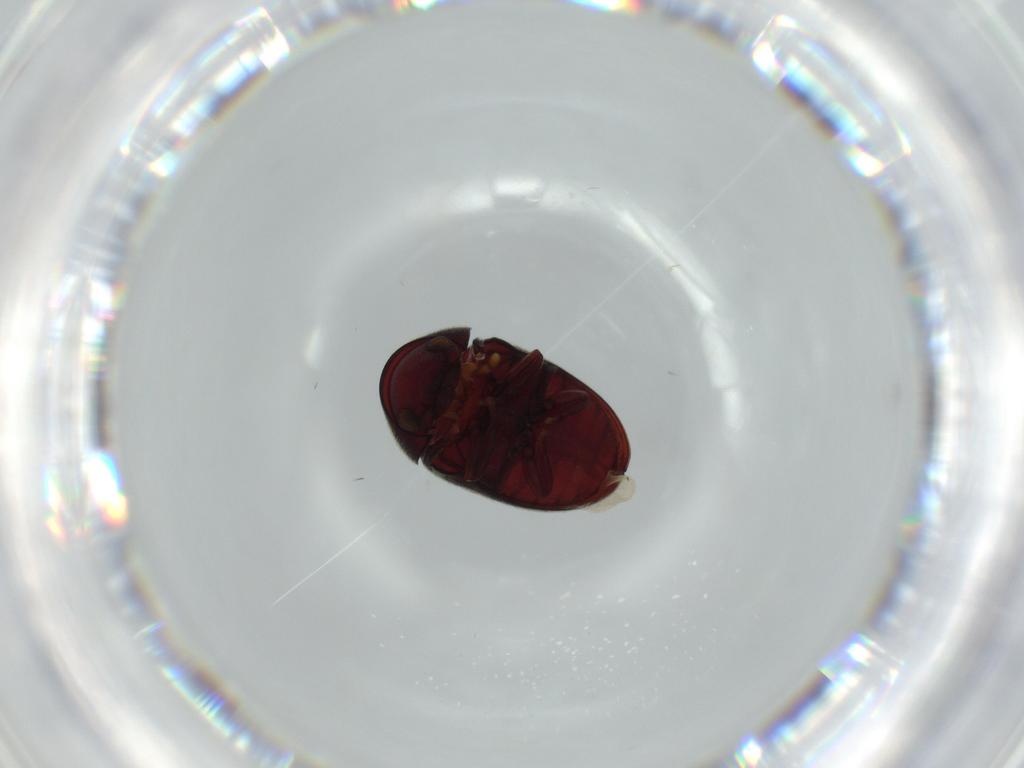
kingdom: Animalia
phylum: Arthropoda
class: Insecta
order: Coleoptera
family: Ptinidae
